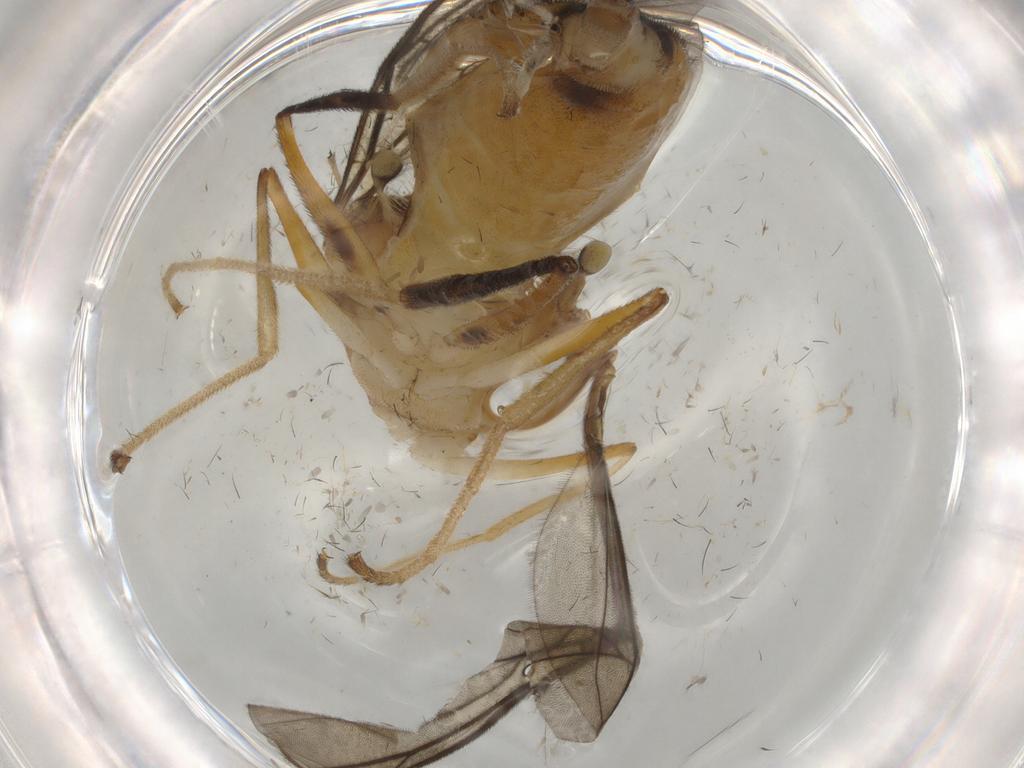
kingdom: Animalia
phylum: Arthropoda
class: Insecta
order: Diptera
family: Stratiomyidae
